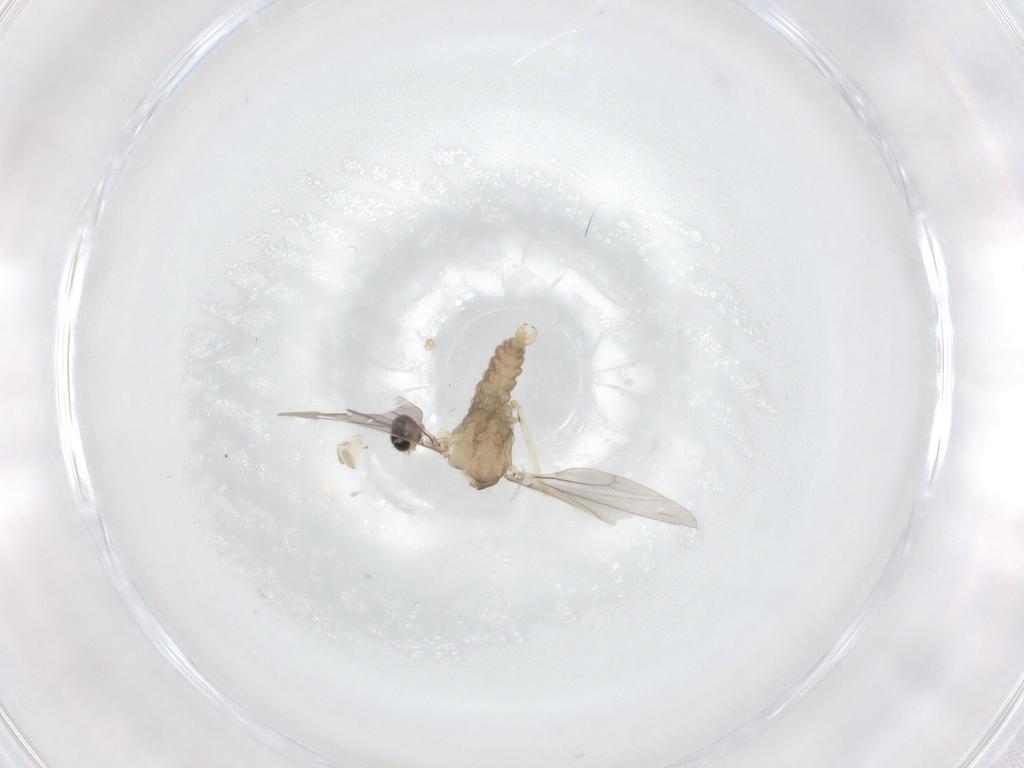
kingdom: Animalia
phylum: Arthropoda
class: Insecta
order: Diptera
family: Cecidomyiidae
